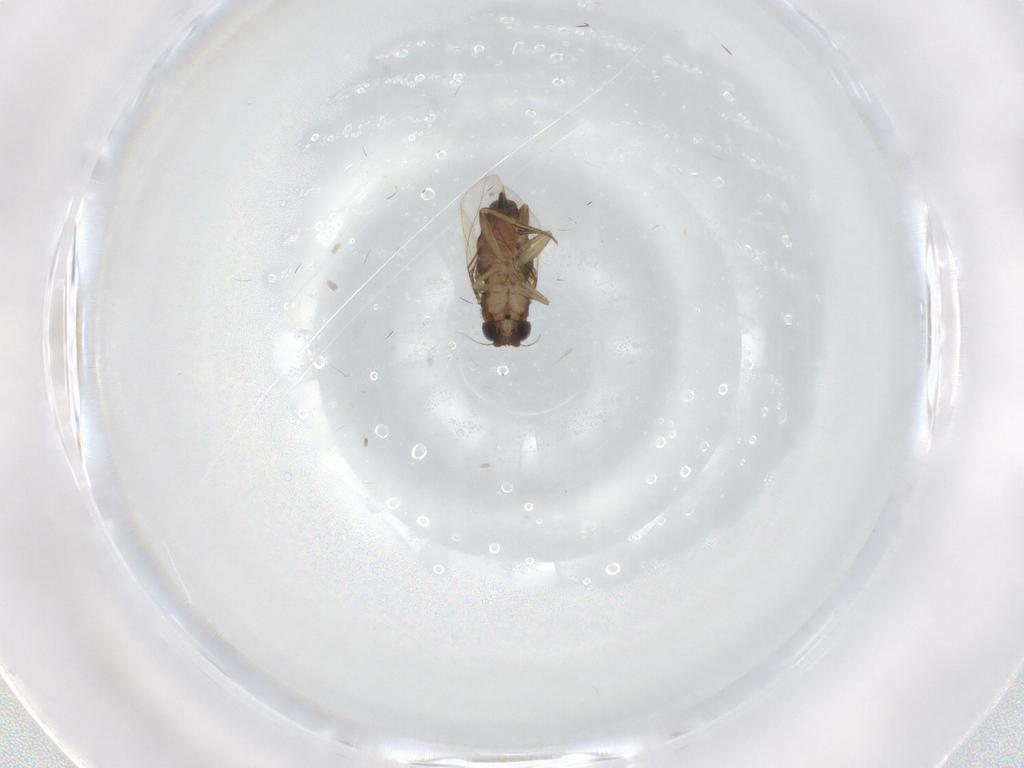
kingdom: Animalia
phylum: Arthropoda
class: Insecta
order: Diptera
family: Phoridae
